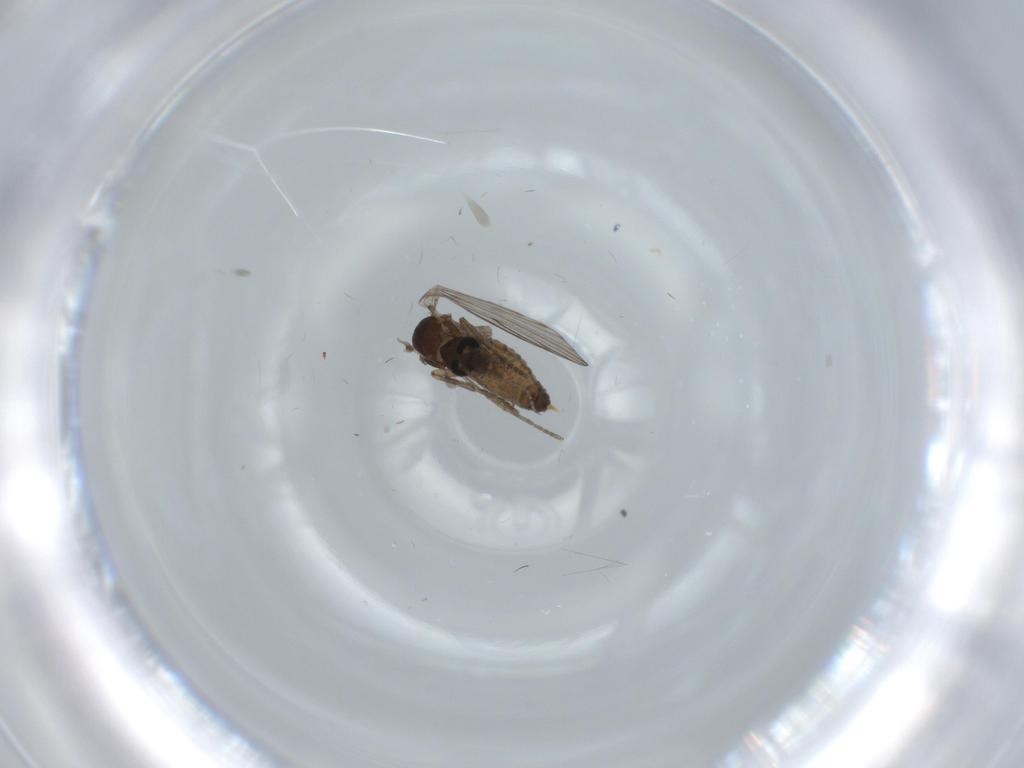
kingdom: Animalia
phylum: Arthropoda
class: Insecta
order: Diptera
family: Psychodidae
